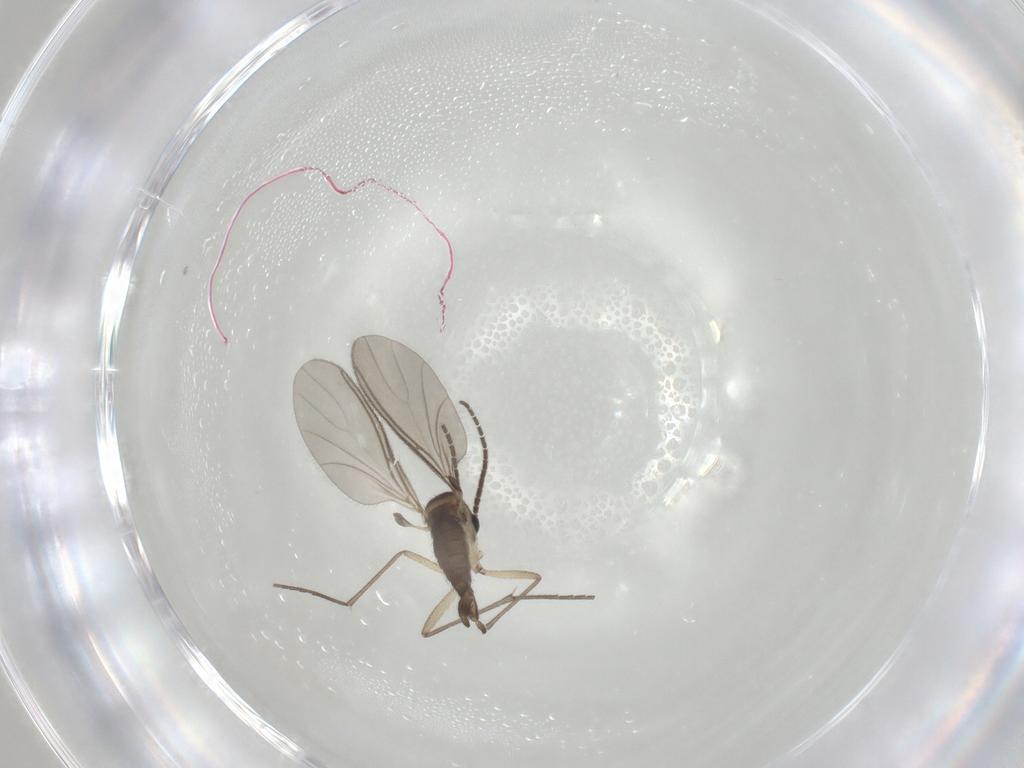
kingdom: Animalia
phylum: Arthropoda
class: Insecta
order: Diptera
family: Sciaridae
